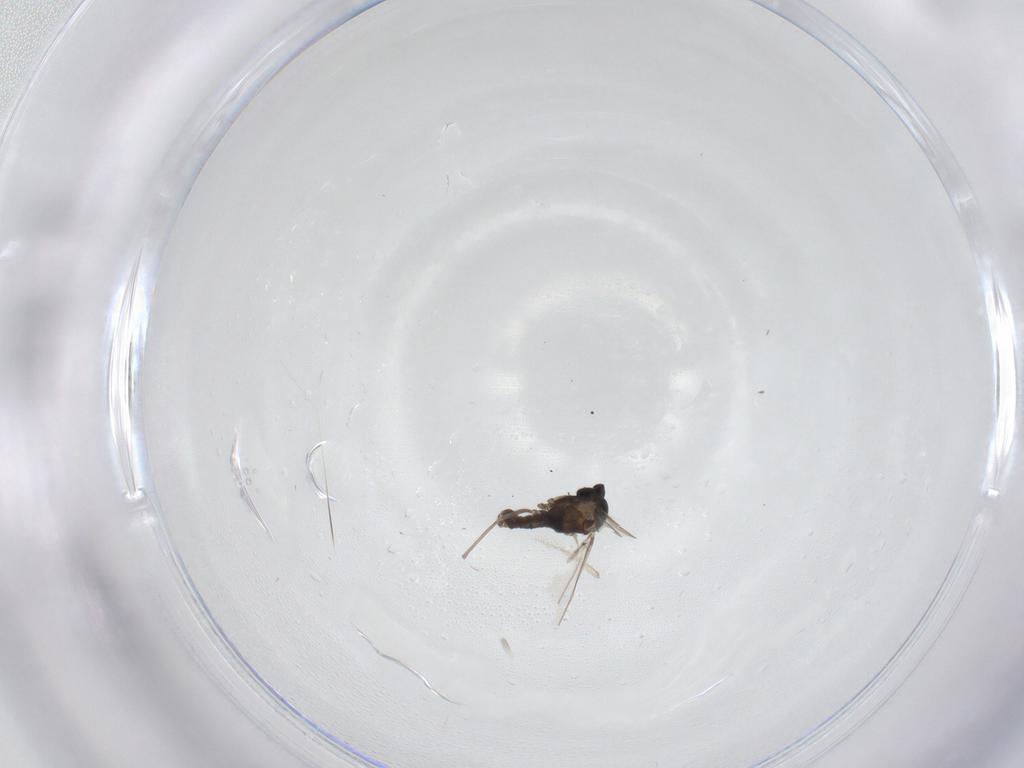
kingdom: Animalia
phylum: Arthropoda
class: Insecta
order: Diptera
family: Cecidomyiidae
